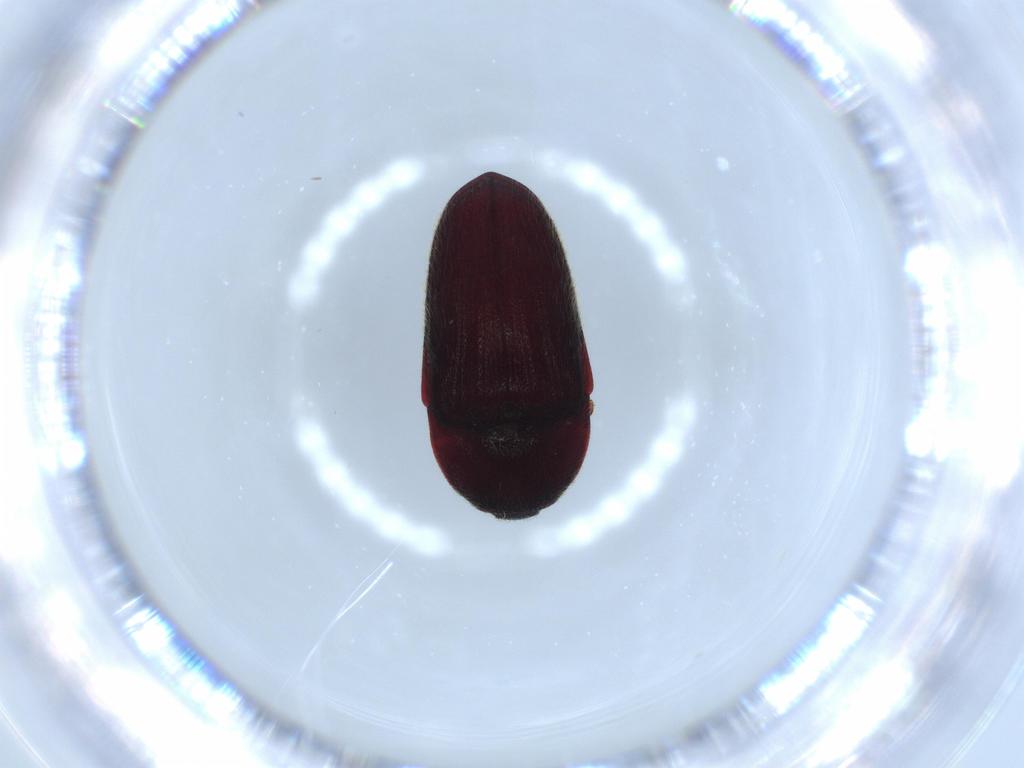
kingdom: Animalia
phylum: Arthropoda
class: Insecta
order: Coleoptera
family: Throscidae
